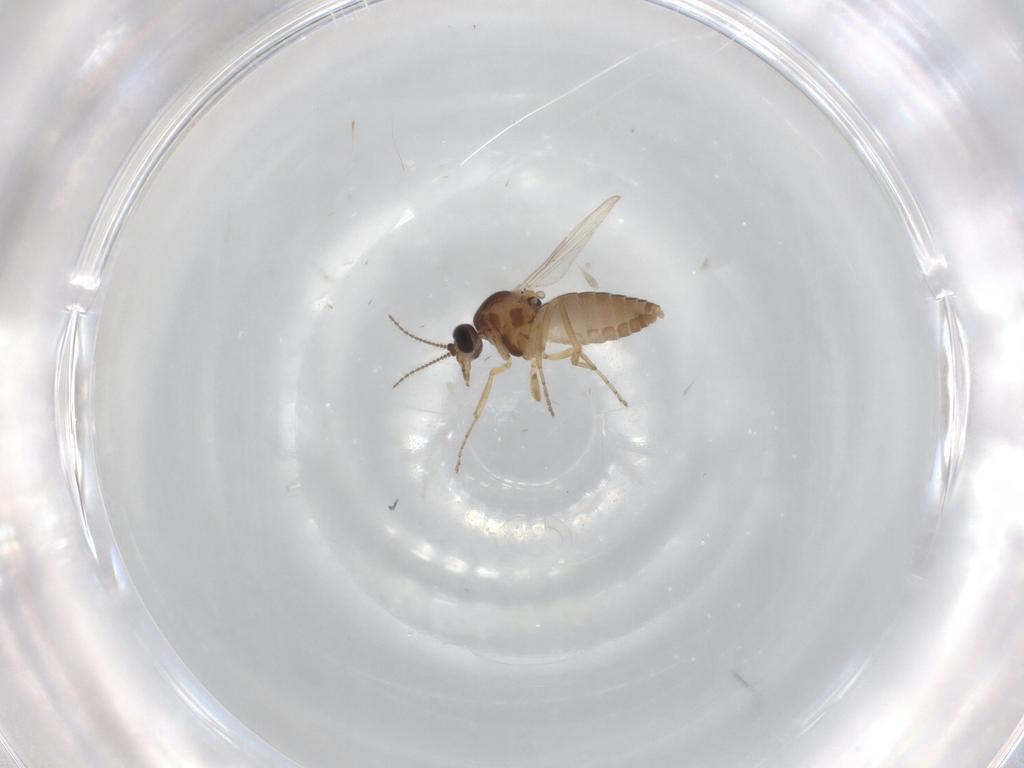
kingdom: Animalia
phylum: Arthropoda
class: Insecta
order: Diptera
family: Ceratopogonidae
